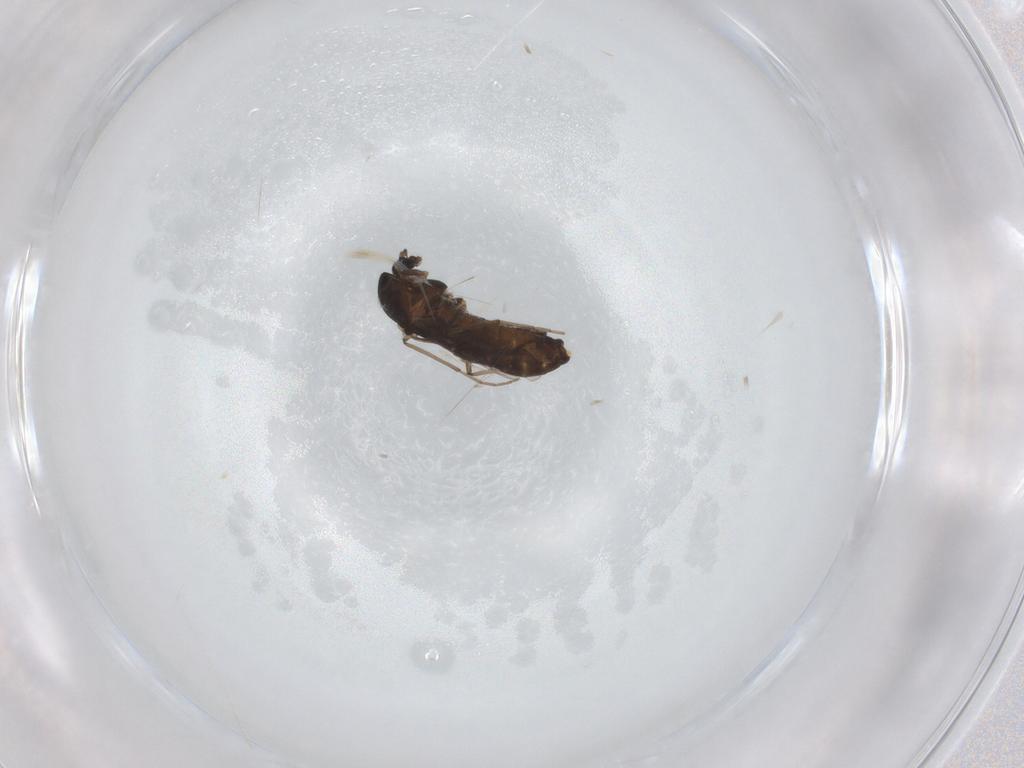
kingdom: Animalia
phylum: Arthropoda
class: Insecta
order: Diptera
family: Chironomidae
